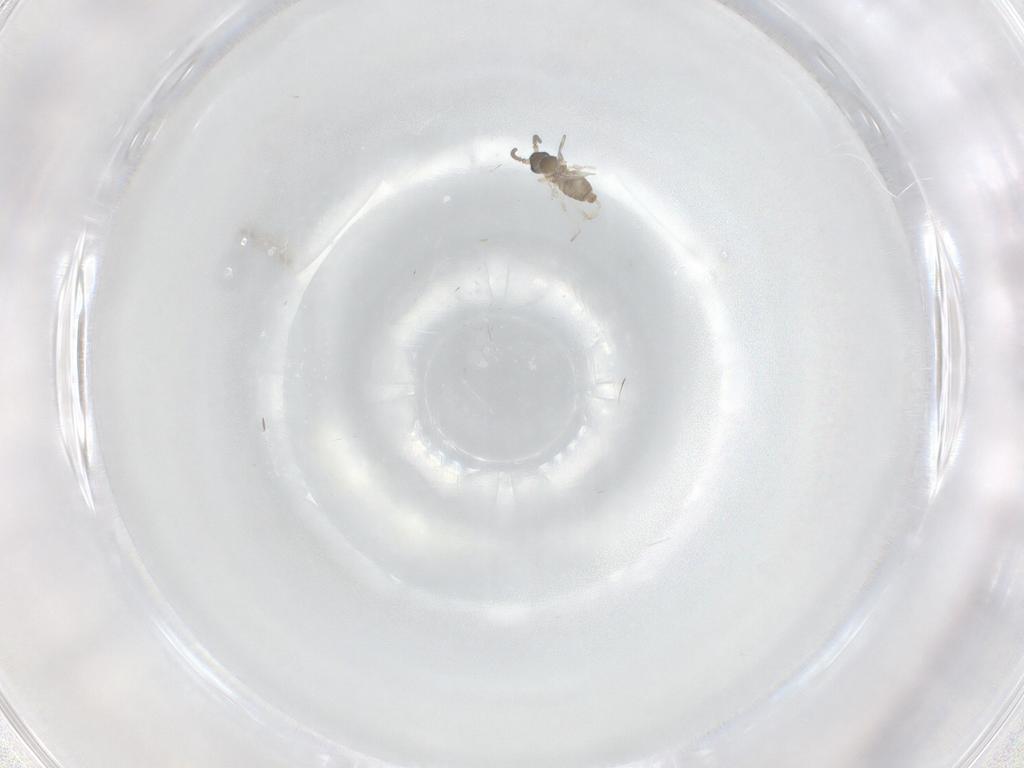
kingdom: Animalia
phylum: Arthropoda
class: Insecta
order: Diptera
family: Cecidomyiidae
